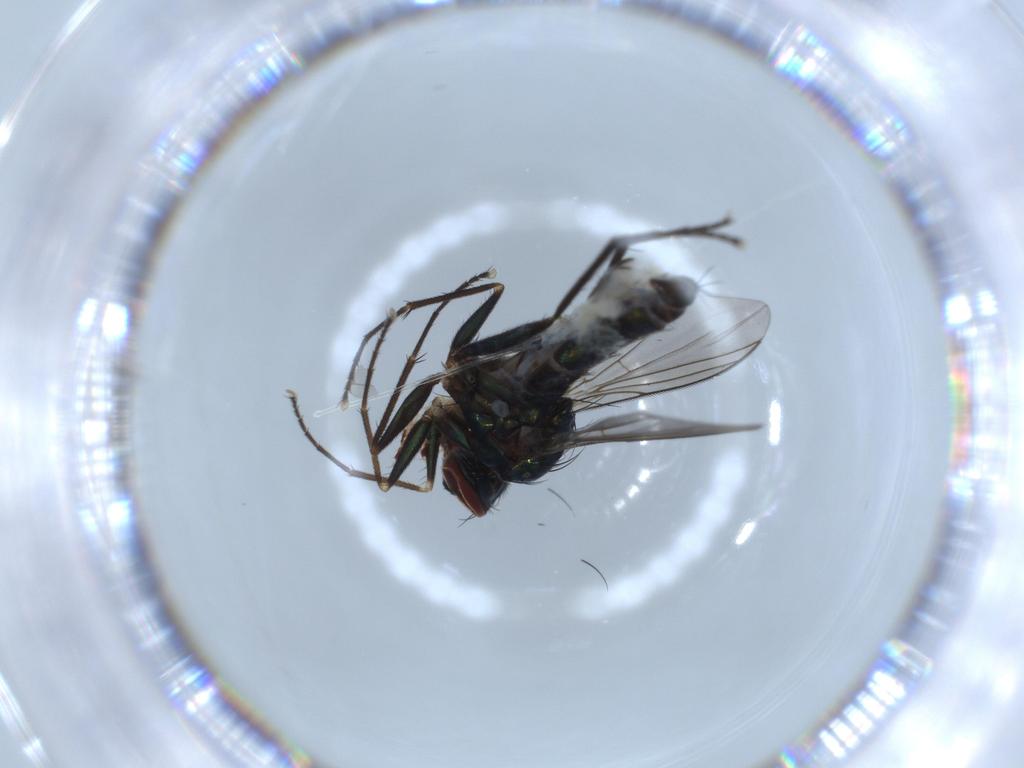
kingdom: Animalia
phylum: Arthropoda
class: Insecta
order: Diptera
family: Dolichopodidae
